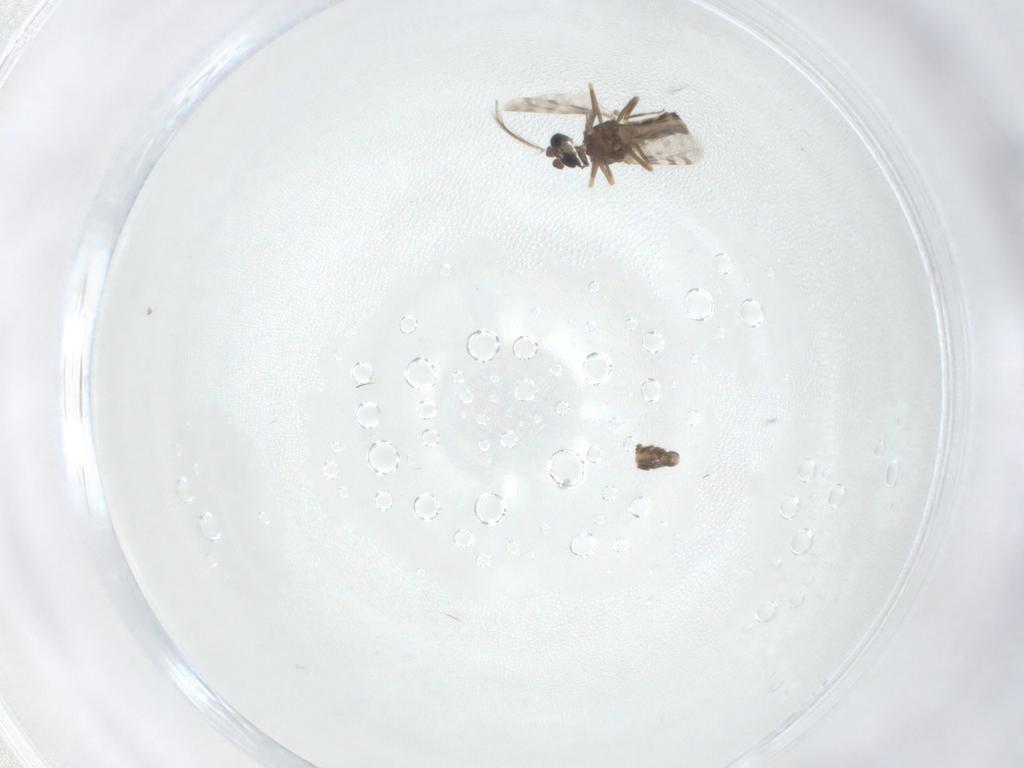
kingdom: Animalia
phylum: Arthropoda
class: Insecta
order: Diptera
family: Ceratopogonidae
